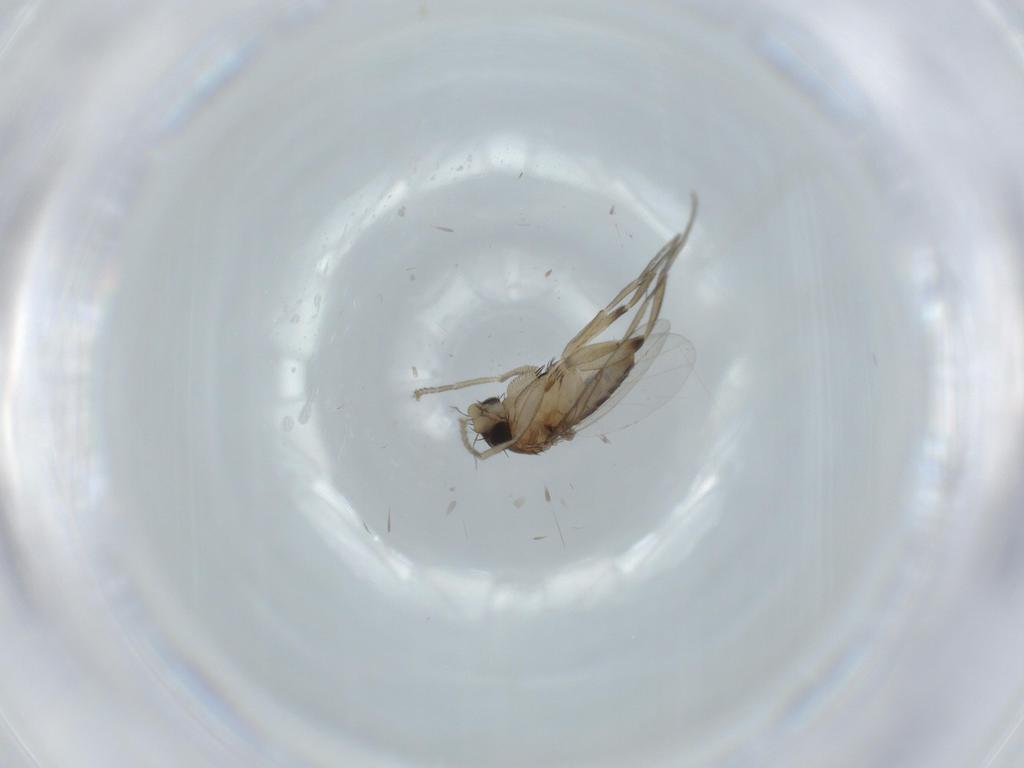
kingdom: Animalia
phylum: Arthropoda
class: Insecta
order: Diptera
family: Phoridae
